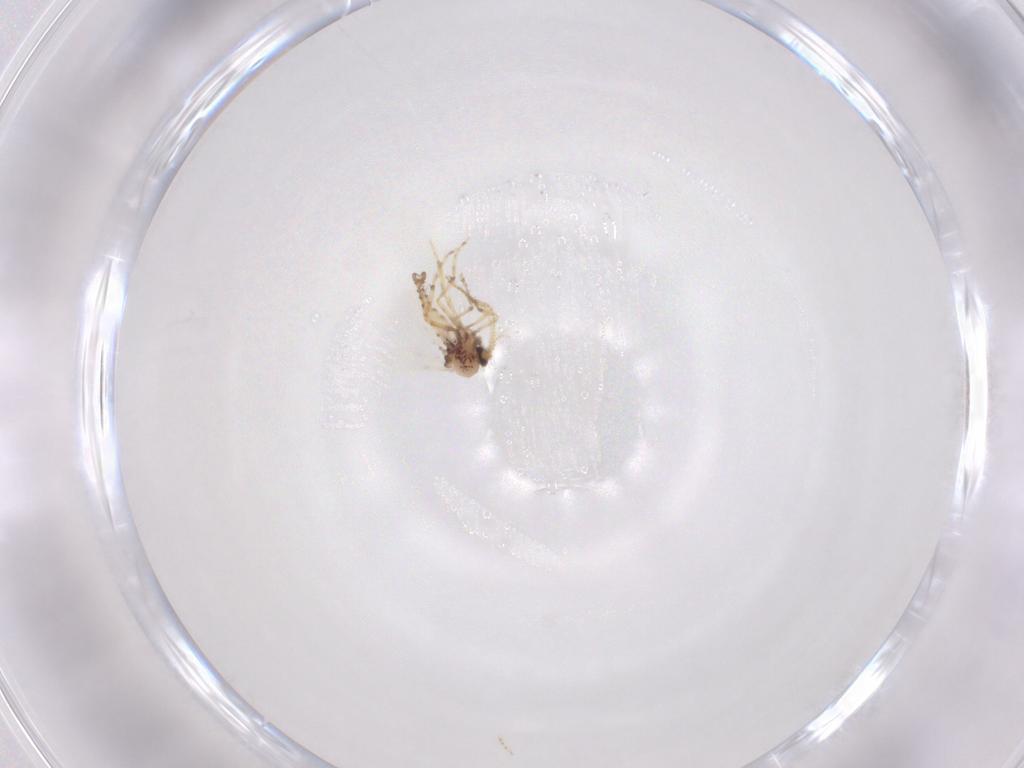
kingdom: Animalia
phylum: Arthropoda
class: Insecta
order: Diptera
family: Ceratopogonidae
